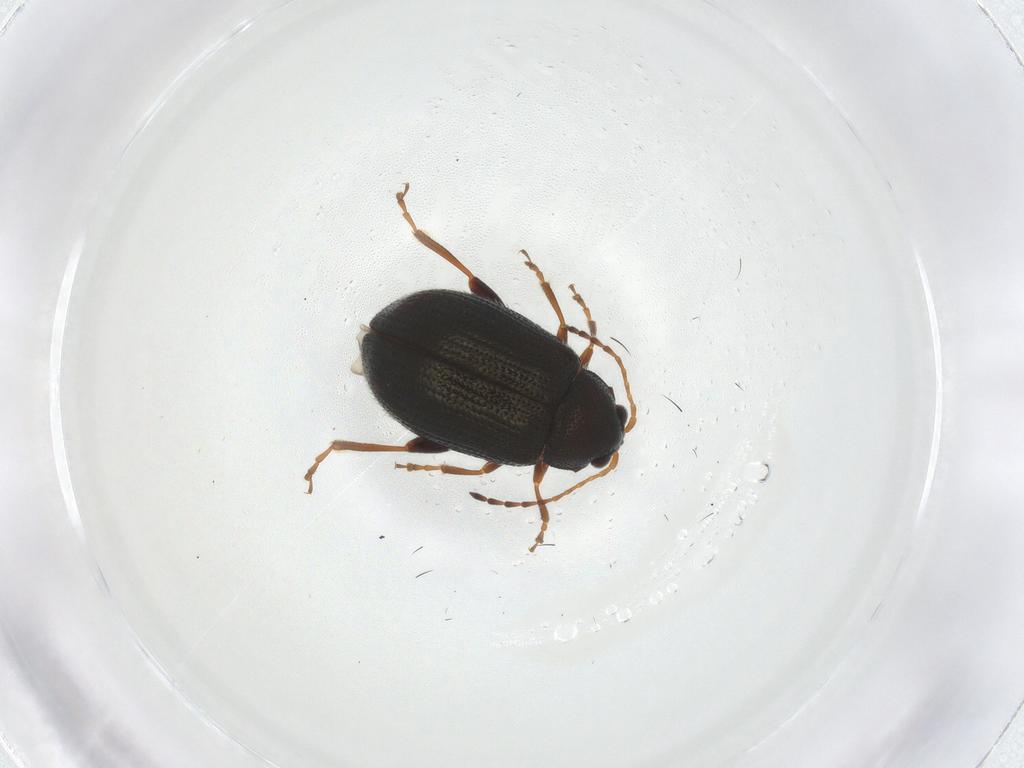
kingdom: Animalia
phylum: Arthropoda
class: Insecta
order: Coleoptera
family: Chrysomelidae
